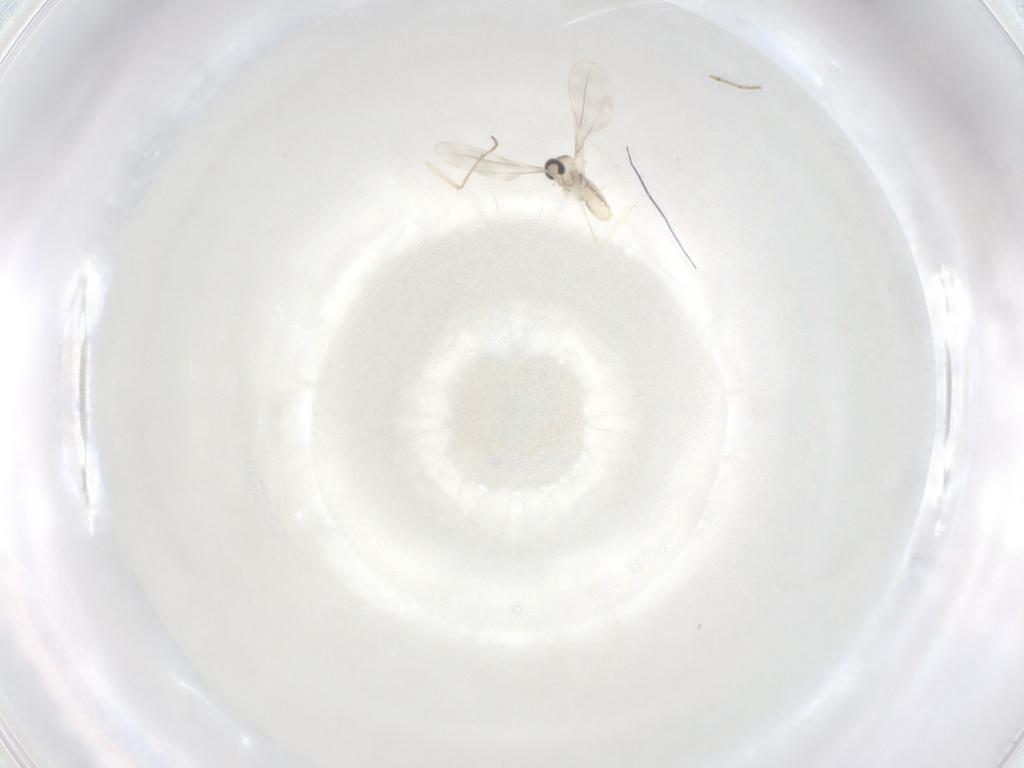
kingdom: Animalia
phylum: Arthropoda
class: Insecta
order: Diptera
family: Chironomidae
